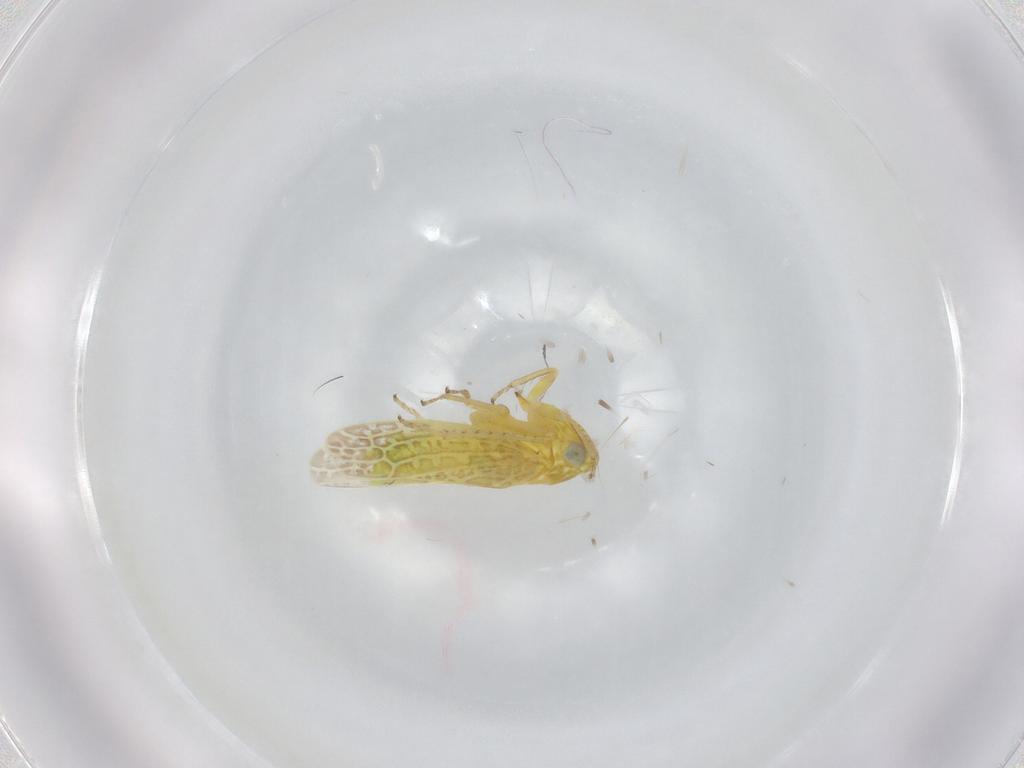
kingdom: Animalia
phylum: Arthropoda
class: Insecta
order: Hemiptera
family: Cicadellidae
